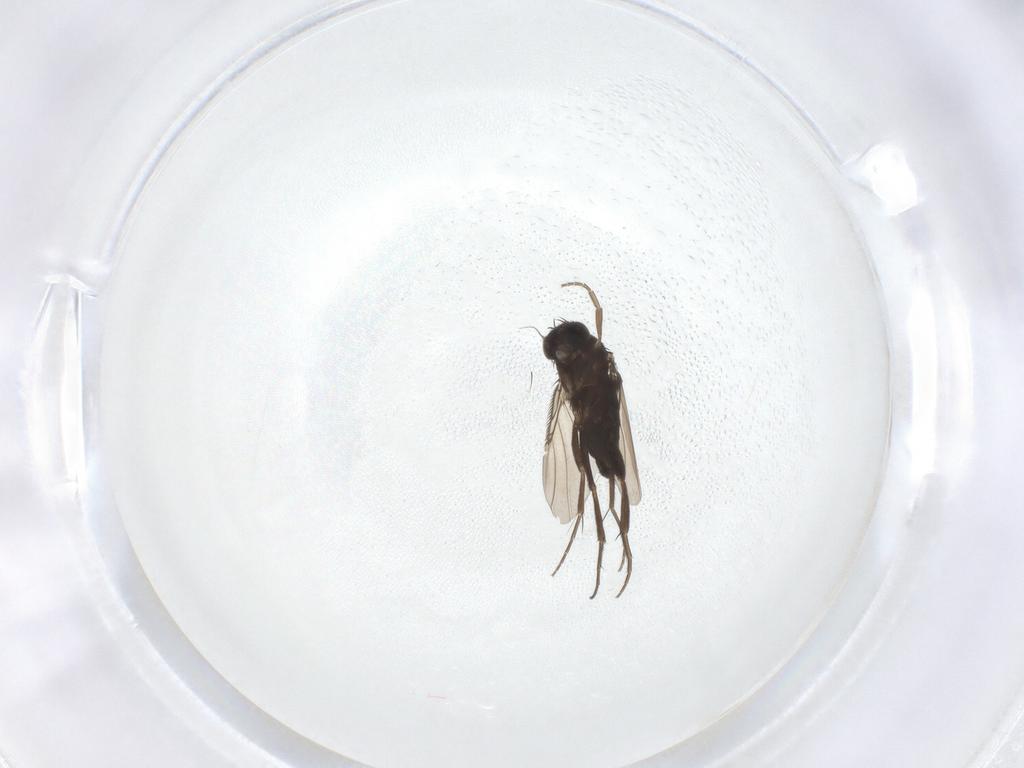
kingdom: Animalia
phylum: Arthropoda
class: Insecta
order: Diptera
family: Phoridae
